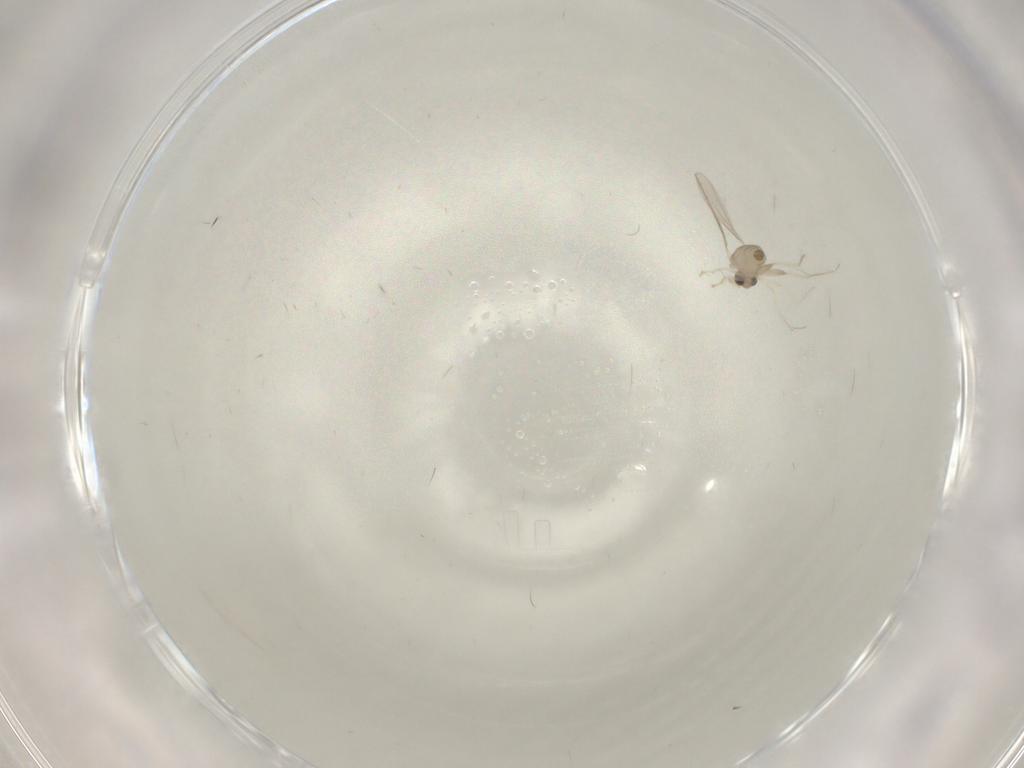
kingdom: Animalia
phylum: Arthropoda
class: Insecta
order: Diptera
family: Cecidomyiidae
